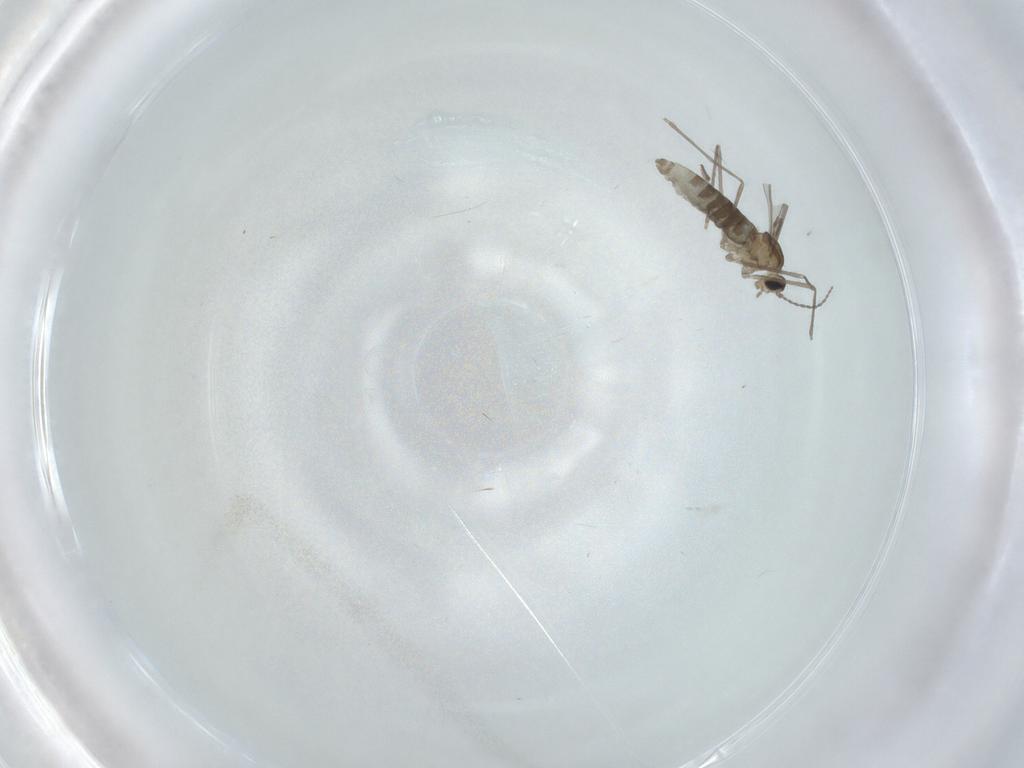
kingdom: Animalia
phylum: Arthropoda
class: Insecta
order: Diptera
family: Cecidomyiidae
